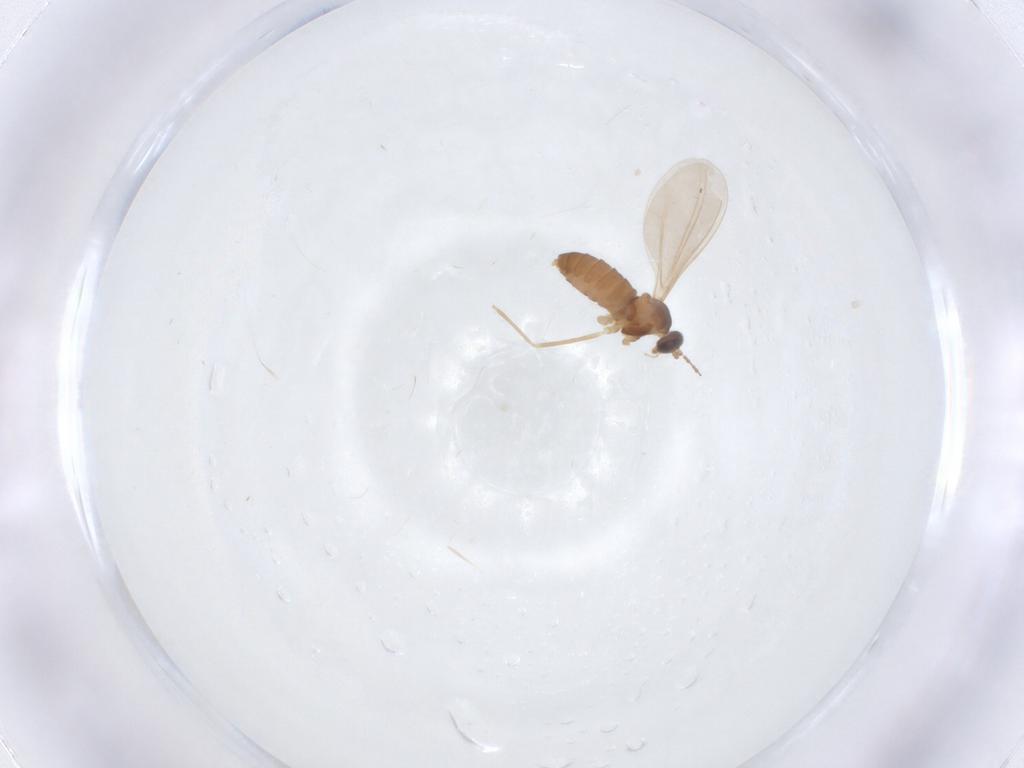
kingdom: Animalia
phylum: Arthropoda
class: Insecta
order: Diptera
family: Cecidomyiidae
